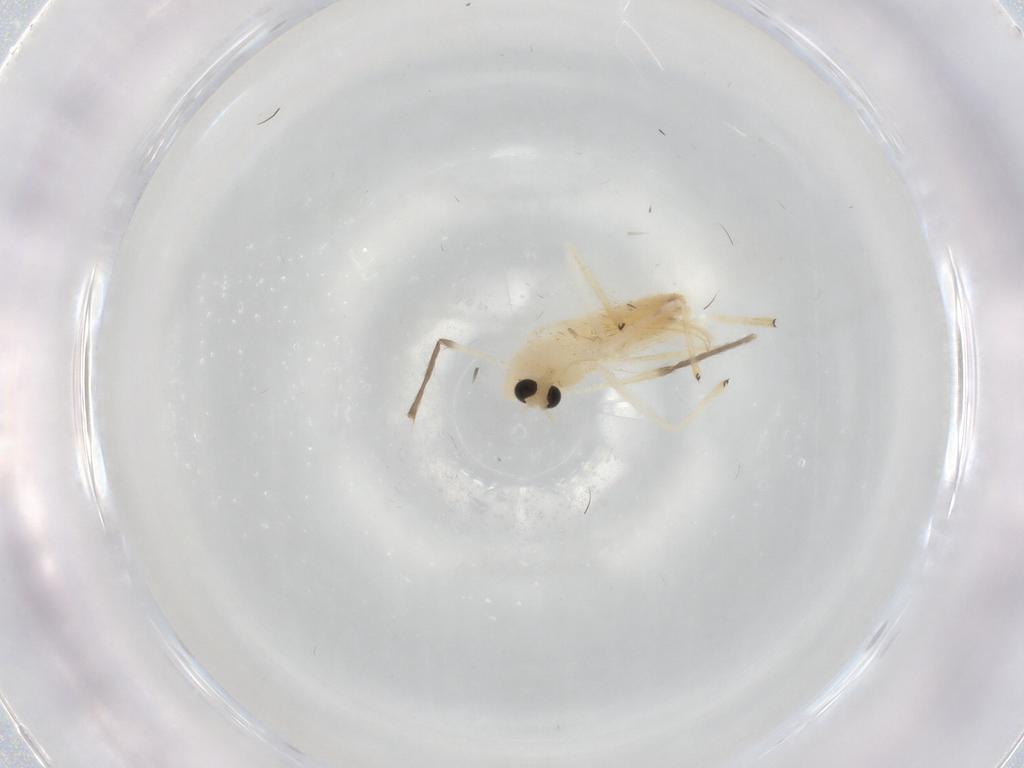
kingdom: Animalia
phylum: Arthropoda
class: Insecta
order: Diptera
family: Chironomidae
